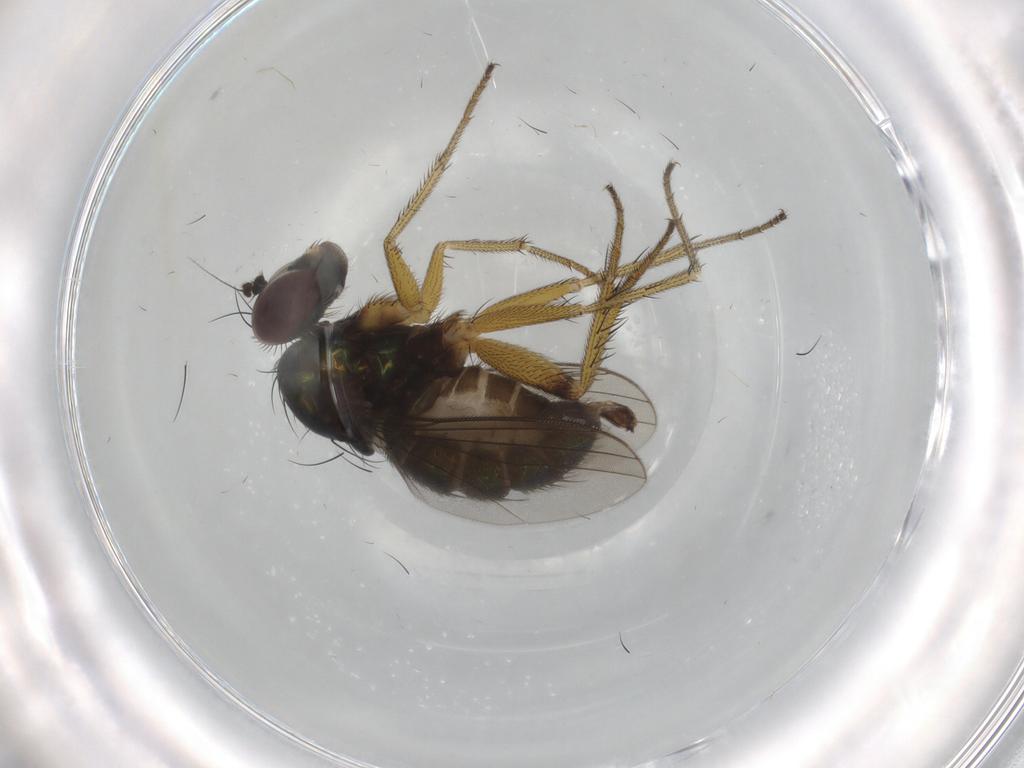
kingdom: Animalia
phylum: Arthropoda
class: Insecta
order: Diptera
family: Dolichopodidae
